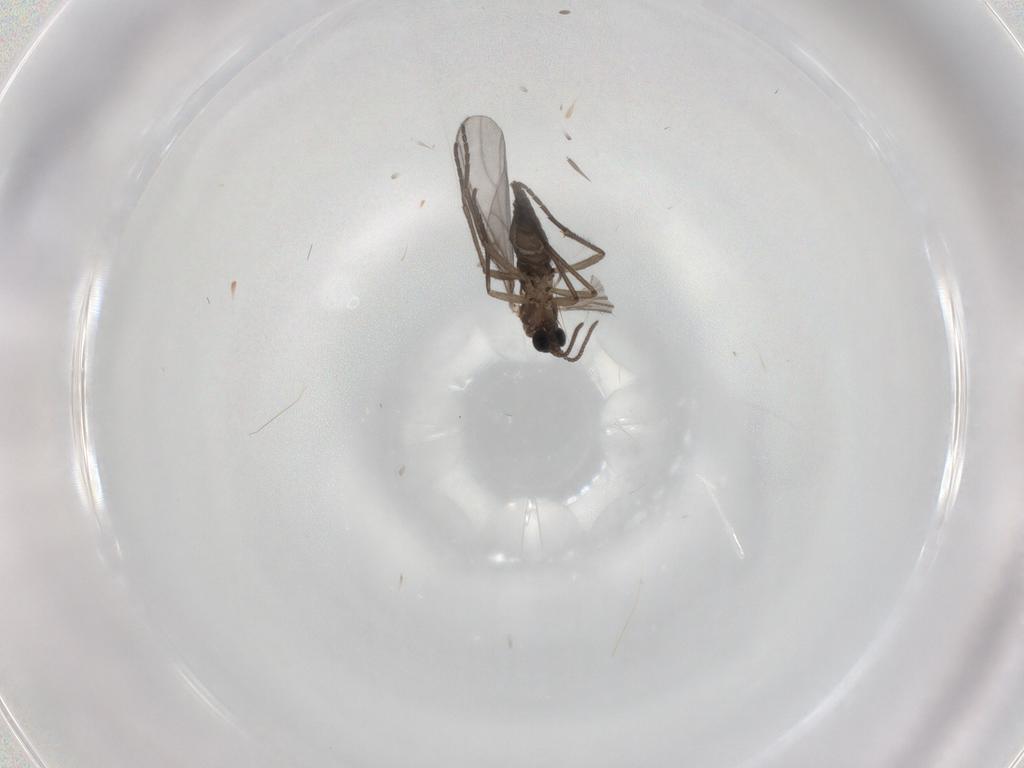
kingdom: Animalia
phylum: Arthropoda
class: Insecta
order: Diptera
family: Sciaridae
